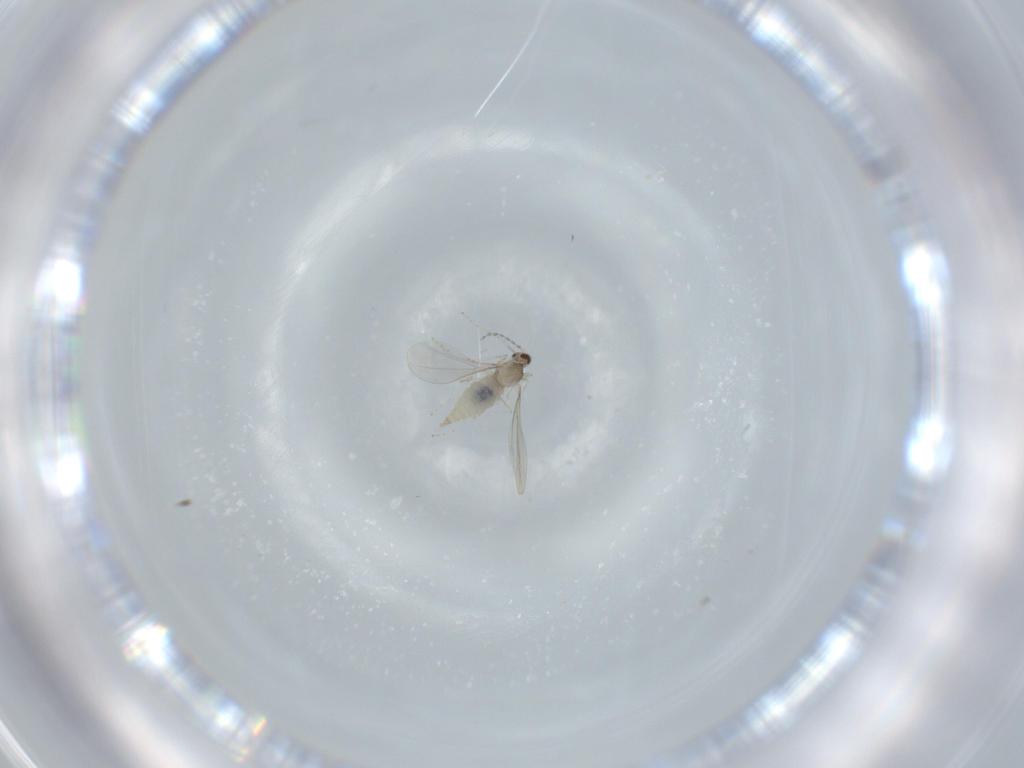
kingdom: Animalia
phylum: Arthropoda
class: Insecta
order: Diptera
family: Cecidomyiidae
